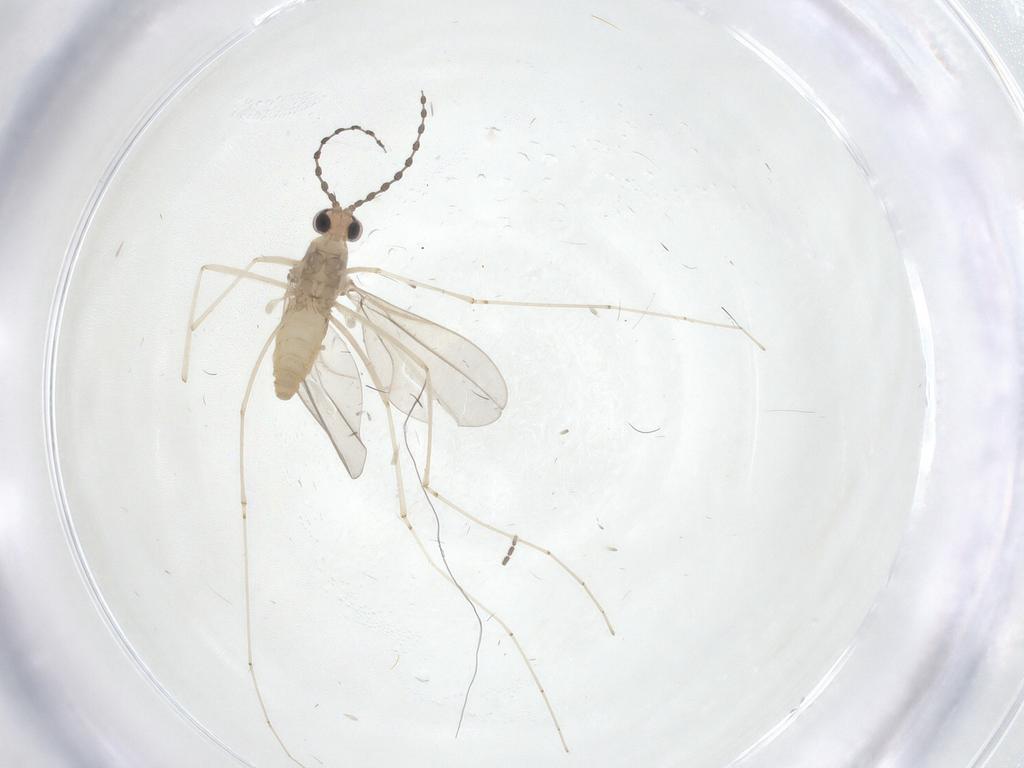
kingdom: Animalia
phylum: Arthropoda
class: Insecta
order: Diptera
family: Cecidomyiidae
